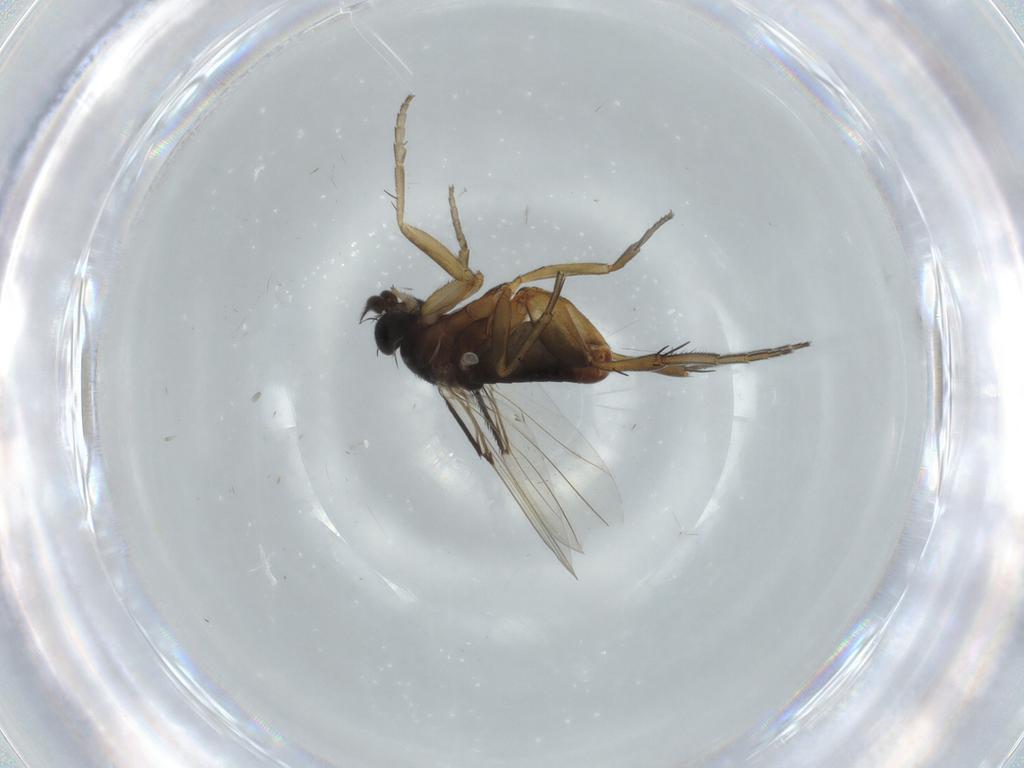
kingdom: Animalia
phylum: Arthropoda
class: Insecta
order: Diptera
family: Phoridae
